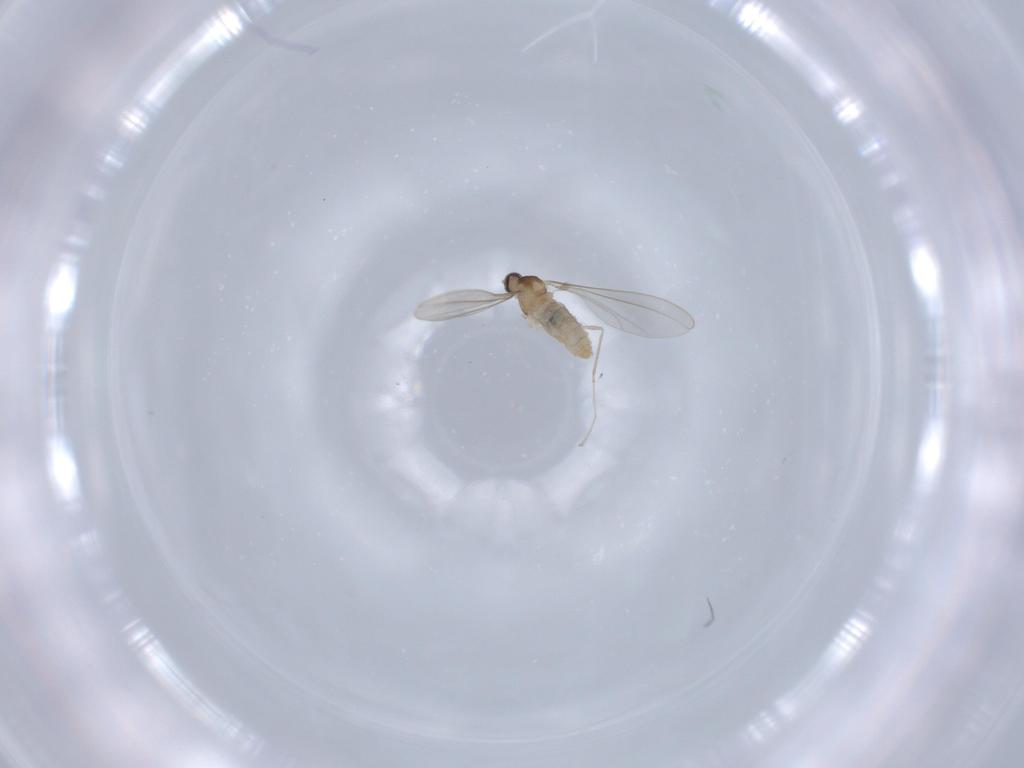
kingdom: Animalia
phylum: Arthropoda
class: Insecta
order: Diptera
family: Cecidomyiidae
